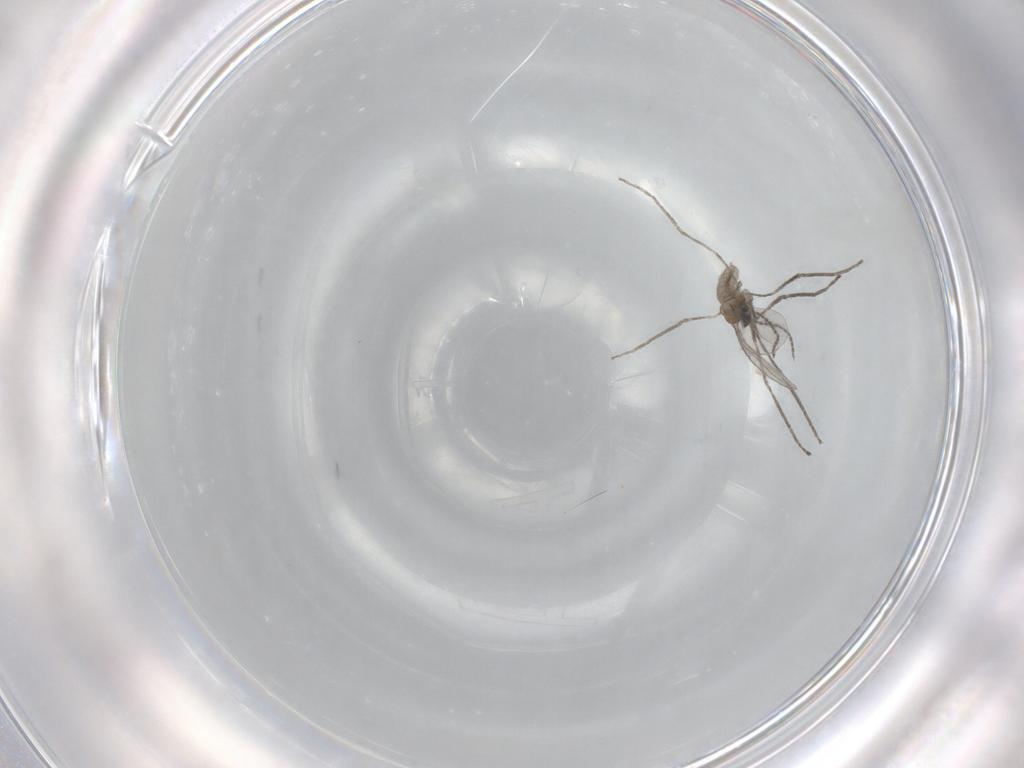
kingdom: Animalia
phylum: Arthropoda
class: Insecta
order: Diptera
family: Cecidomyiidae
